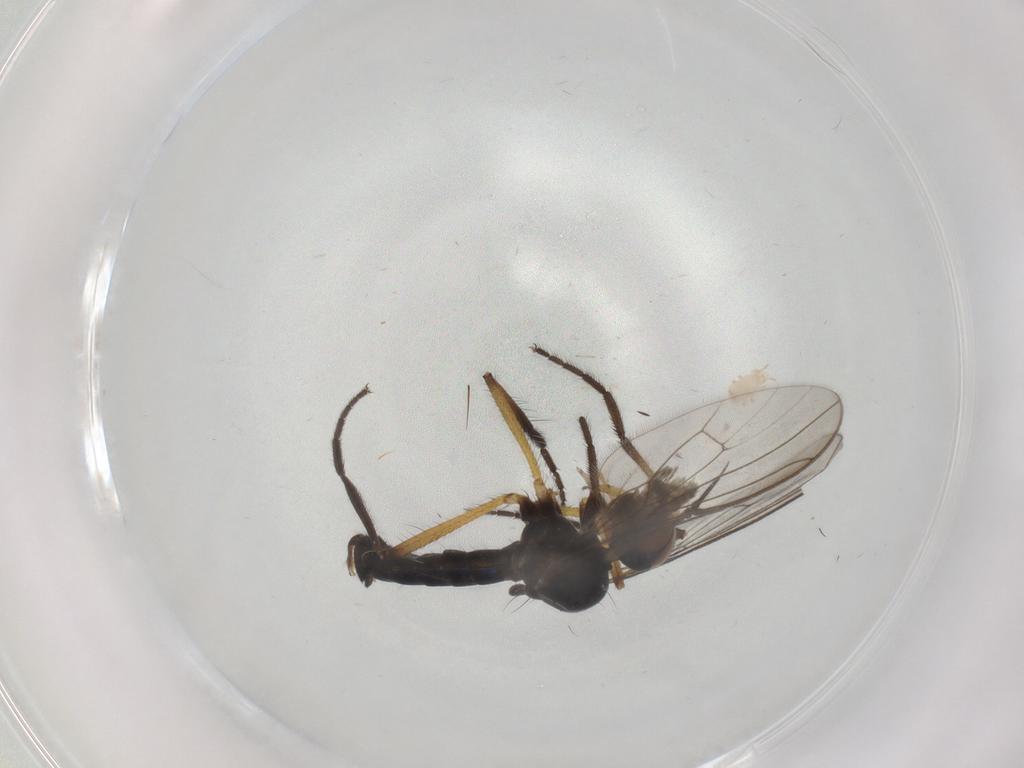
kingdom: Animalia
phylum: Arthropoda
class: Insecta
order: Diptera
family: Empididae
